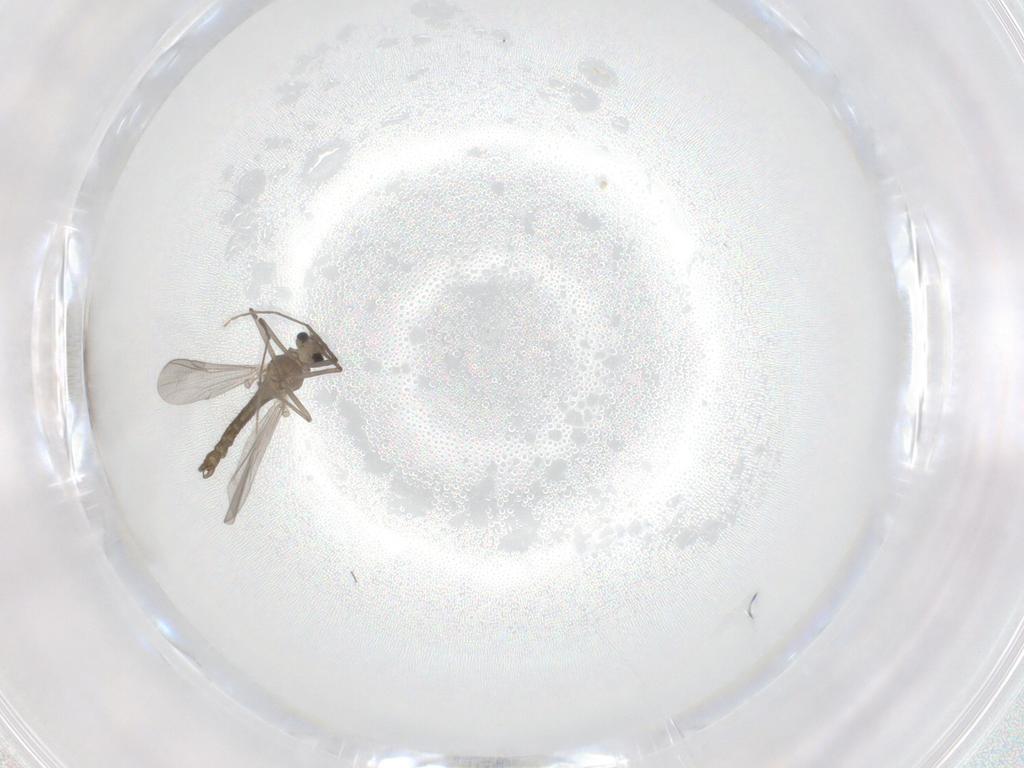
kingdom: Animalia
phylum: Arthropoda
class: Insecta
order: Diptera
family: Chironomidae
